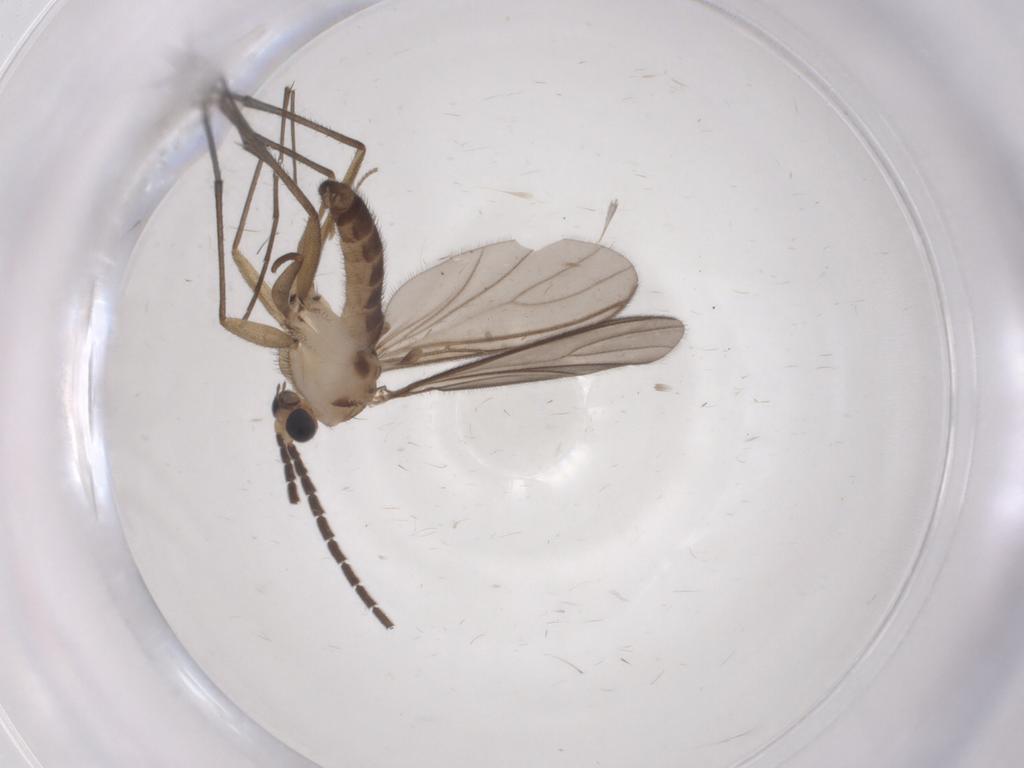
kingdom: Animalia
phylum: Arthropoda
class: Insecta
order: Diptera
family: Sciaridae
